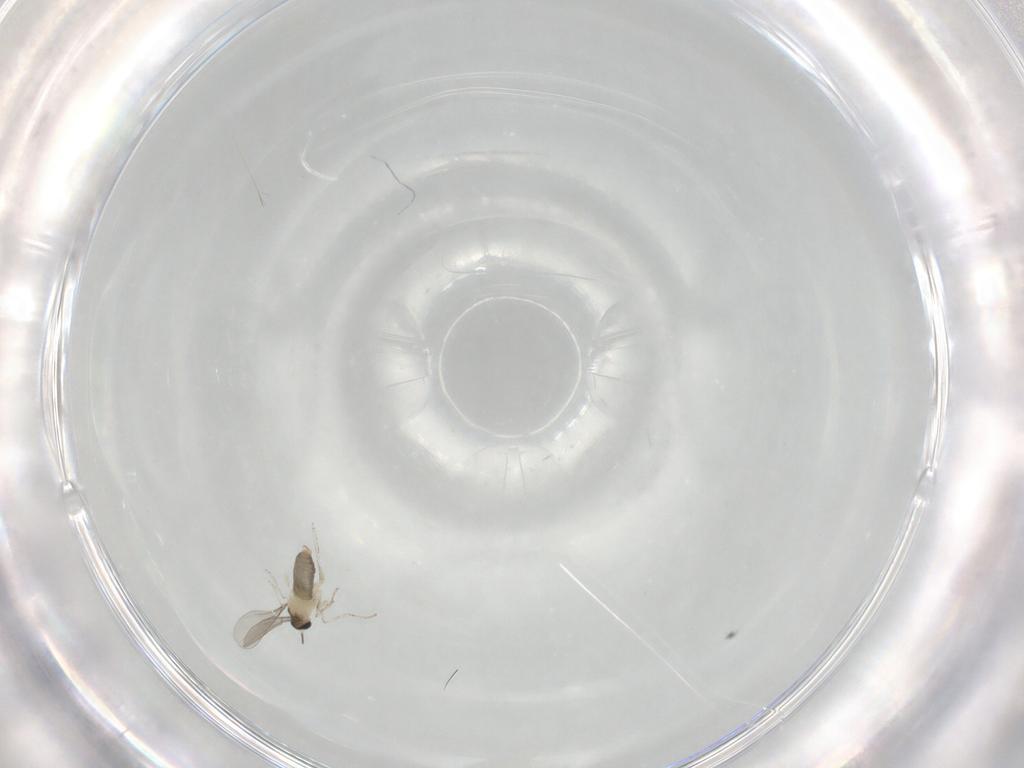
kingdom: Animalia
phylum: Arthropoda
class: Insecta
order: Diptera
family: Cecidomyiidae
